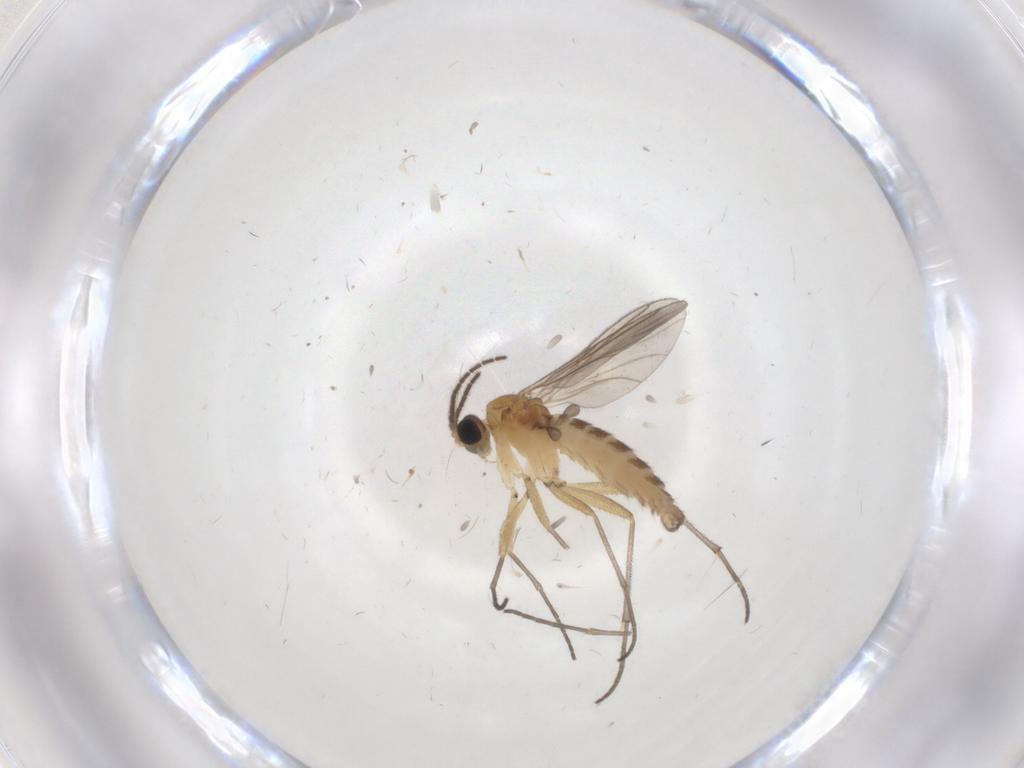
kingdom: Animalia
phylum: Arthropoda
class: Insecta
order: Diptera
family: Cecidomyiidae
